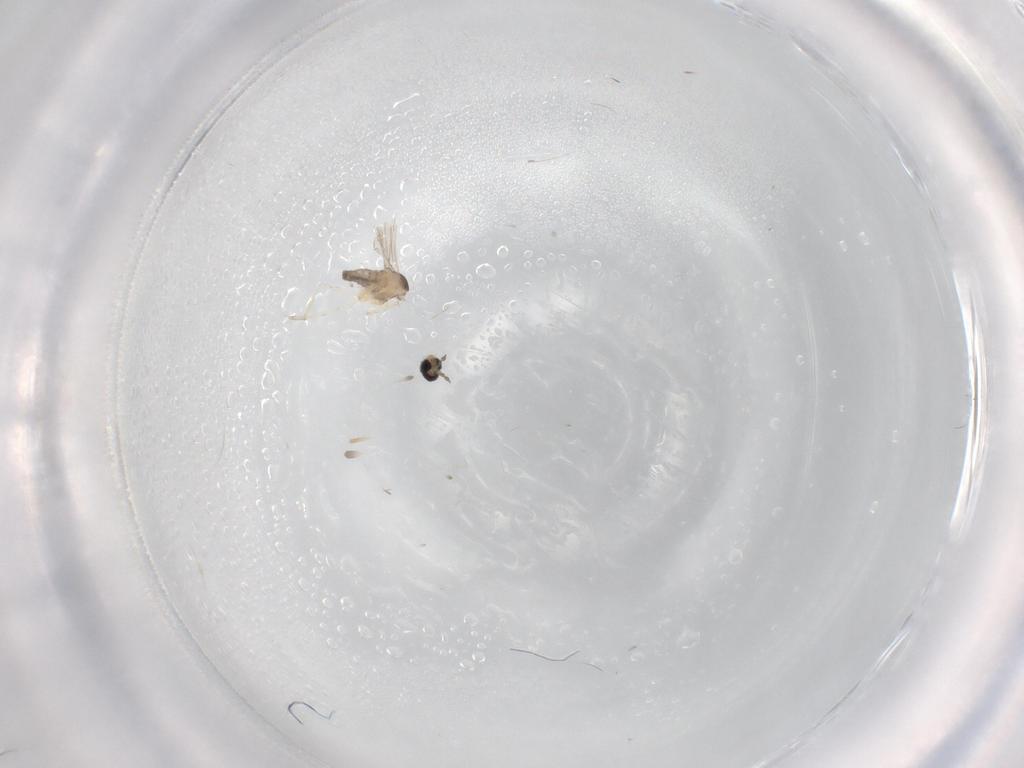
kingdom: Animalia
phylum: Arthropoda
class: Insecta
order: Diptera
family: Cecidomyiidae
